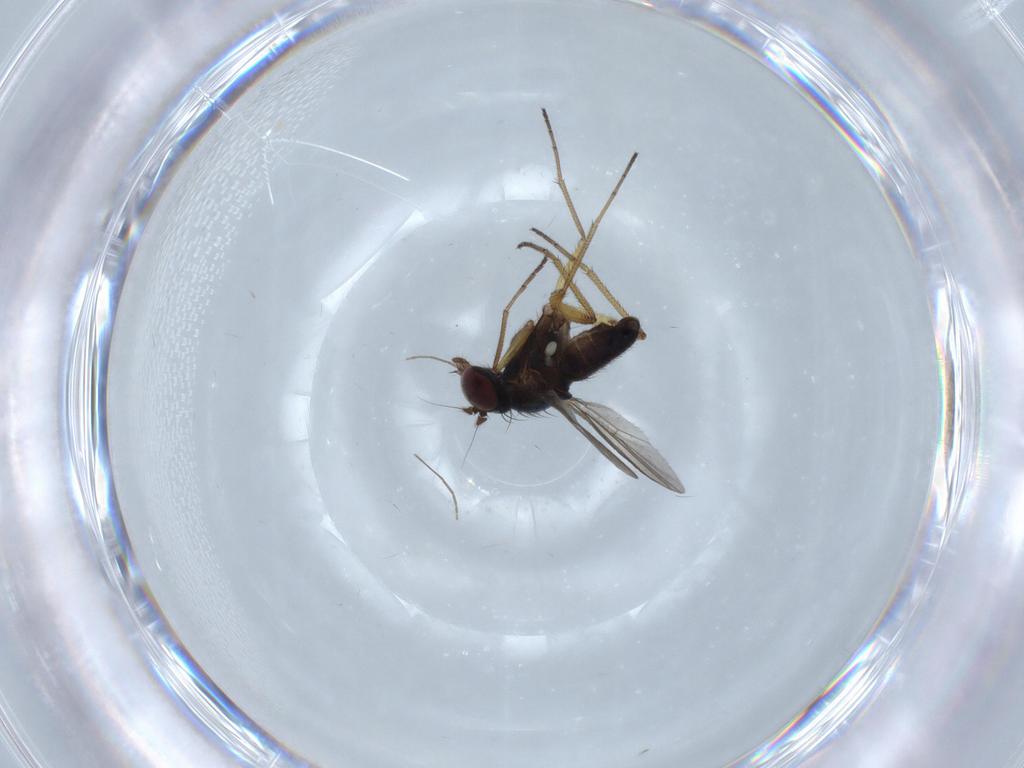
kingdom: Animalia
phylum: Arthropoda
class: Insecta
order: Diptera
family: Dolichopodidae
